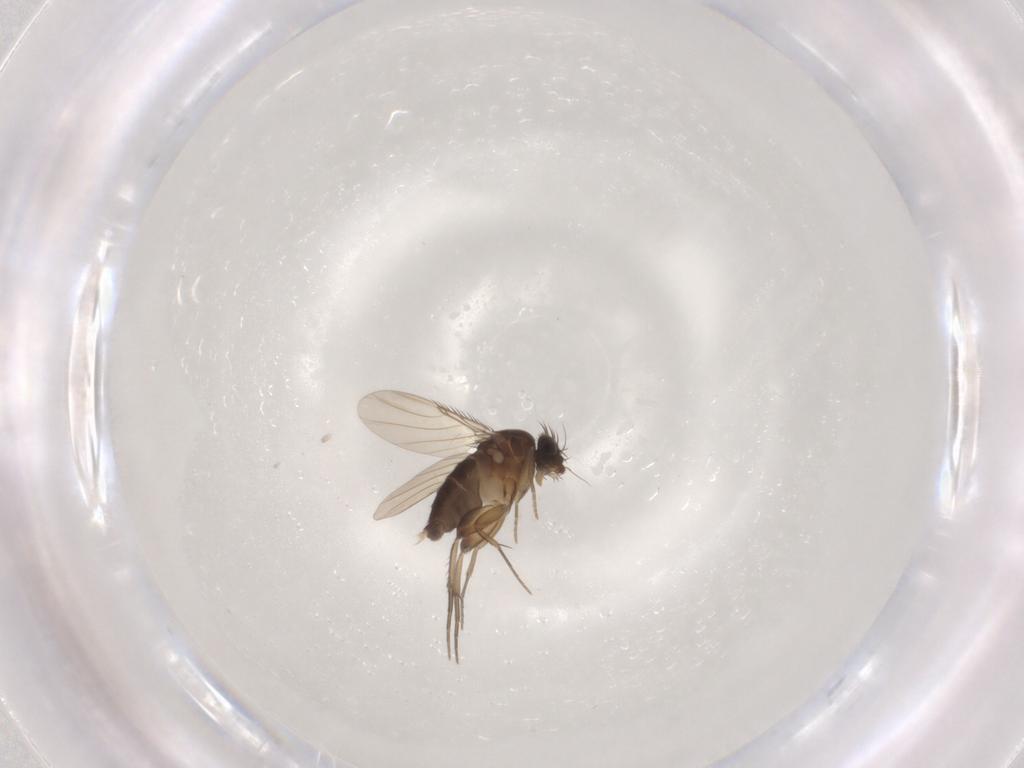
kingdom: Animalia
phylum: Arthropoda
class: Insecta
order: Diptera
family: Phoridae
